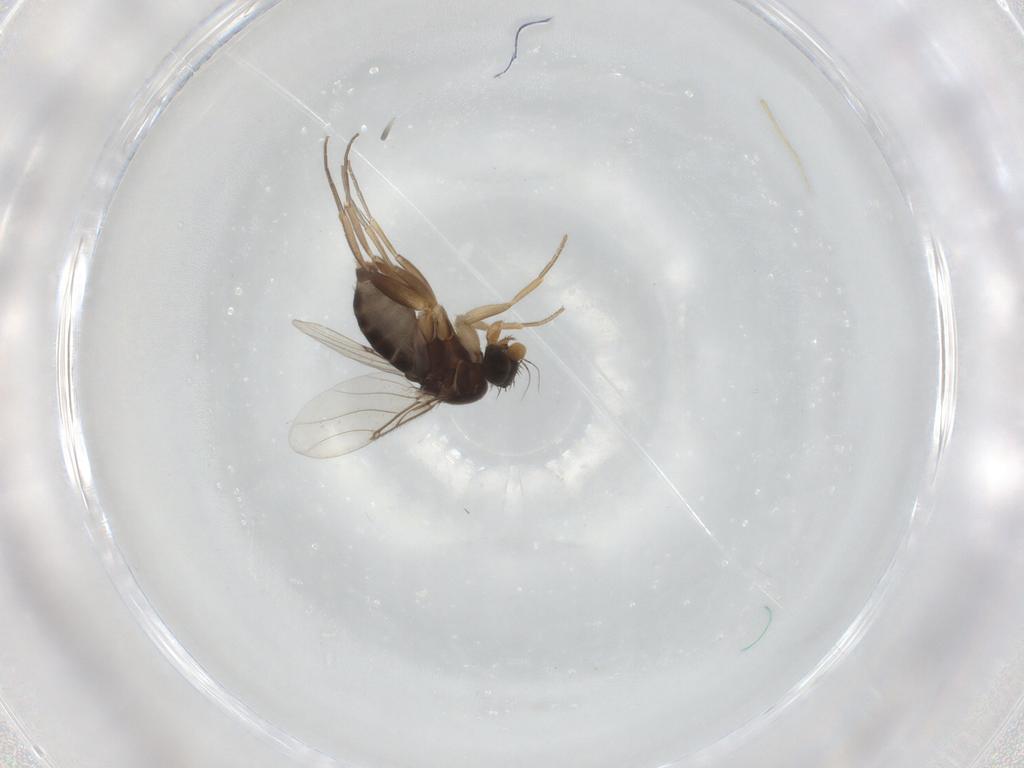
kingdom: Animalia
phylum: Arthropoda
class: Insecta
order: Diptera
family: Phoridae
